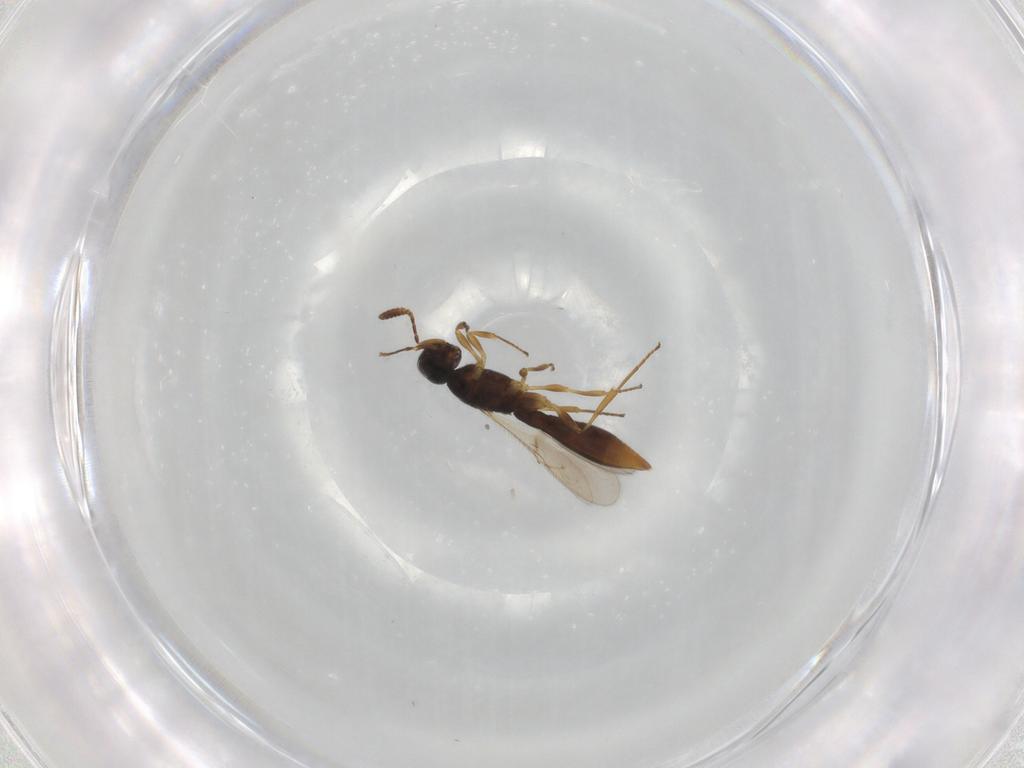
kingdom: Animalia
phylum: Arthropoda
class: Insecta
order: Hymenoptera
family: Scelionidae
